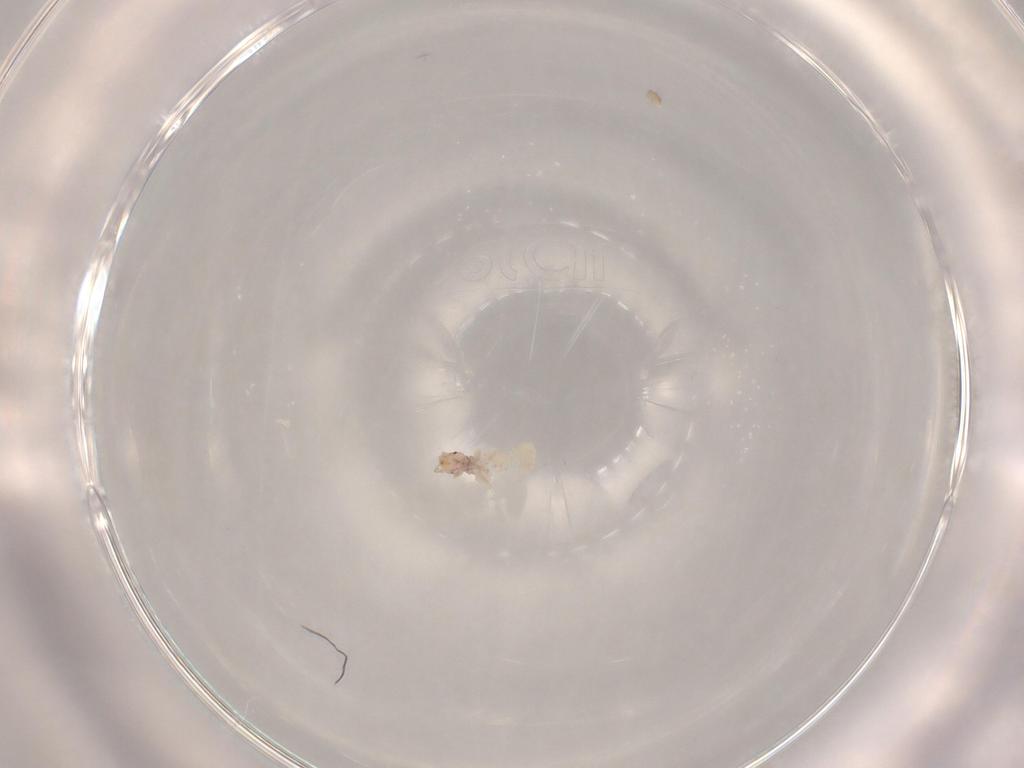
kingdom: Animalia
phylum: Arthropoda
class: Insecta
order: Psocodea
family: Liposcelididae
